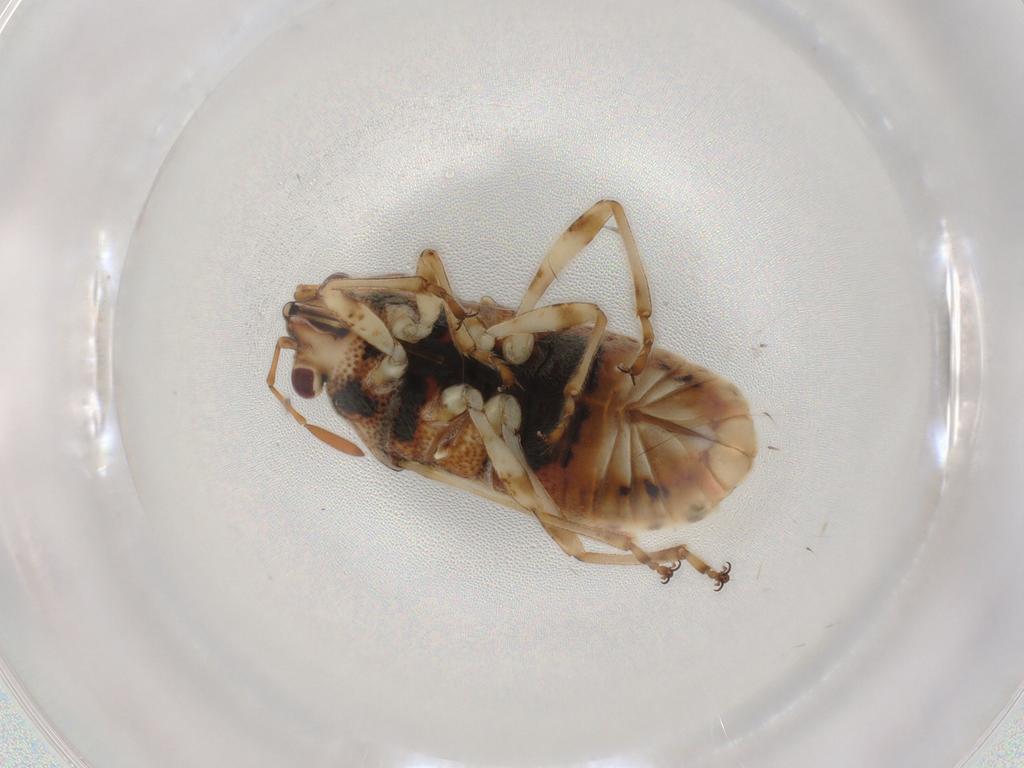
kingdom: Animalia
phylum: Arthropoda
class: Insecta
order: Hemiptera
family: Lygaeidae
